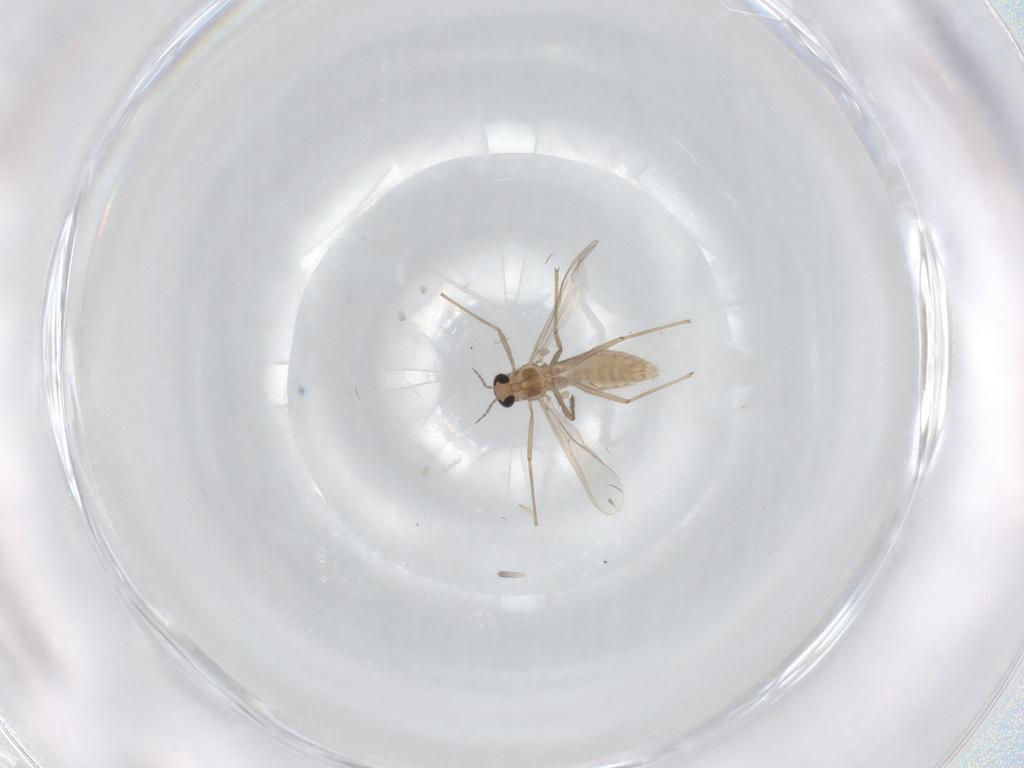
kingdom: Animalia
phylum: Arthropoda
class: Insecta
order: Diptera
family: Chironomidae
